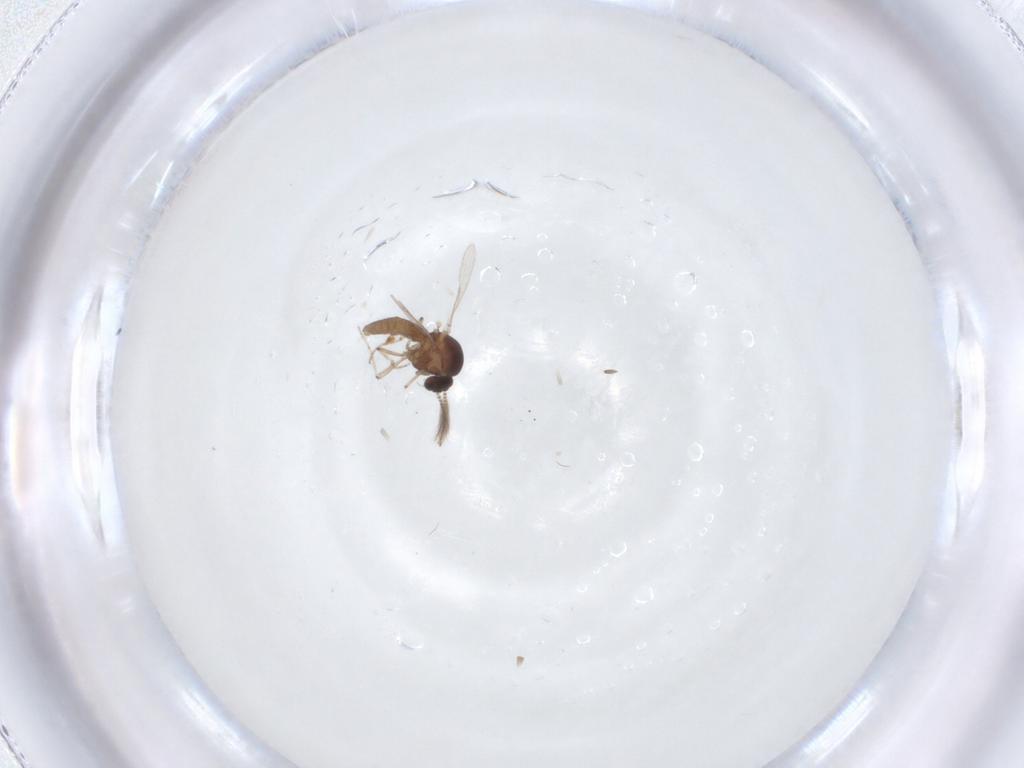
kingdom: Animalia
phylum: Arthropoda
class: Insecta
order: Diptera
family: Ceratopogonidae
